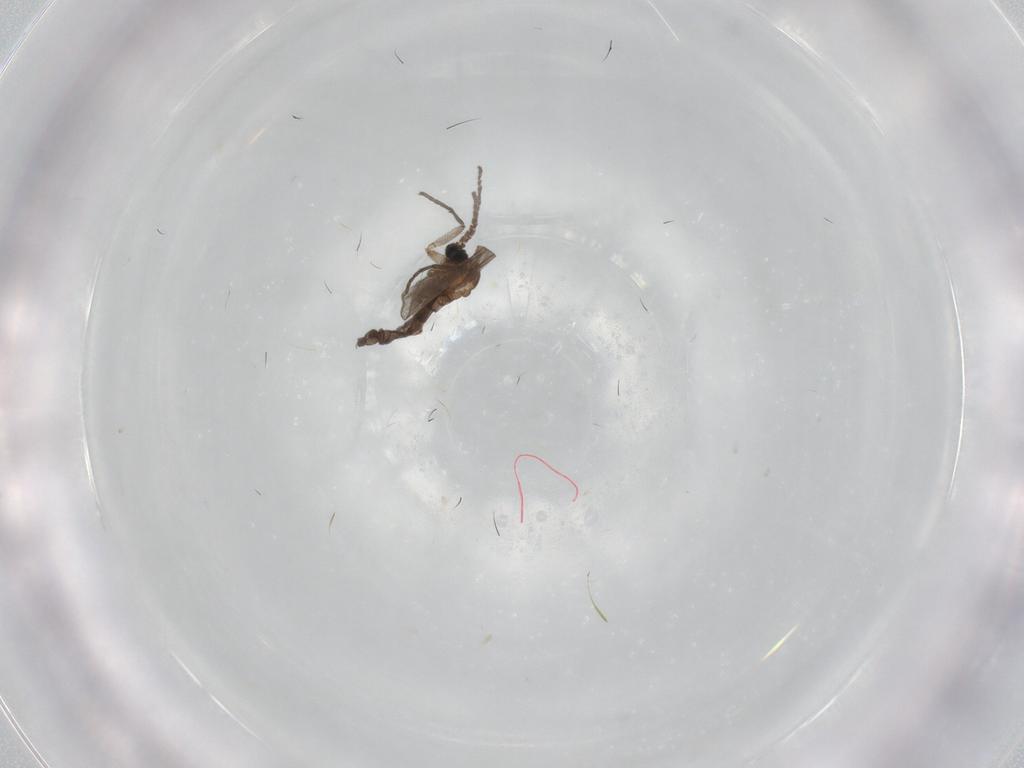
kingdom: Animalia
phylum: Arthropoda
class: Insecta
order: Diptera
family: Sciaridae
